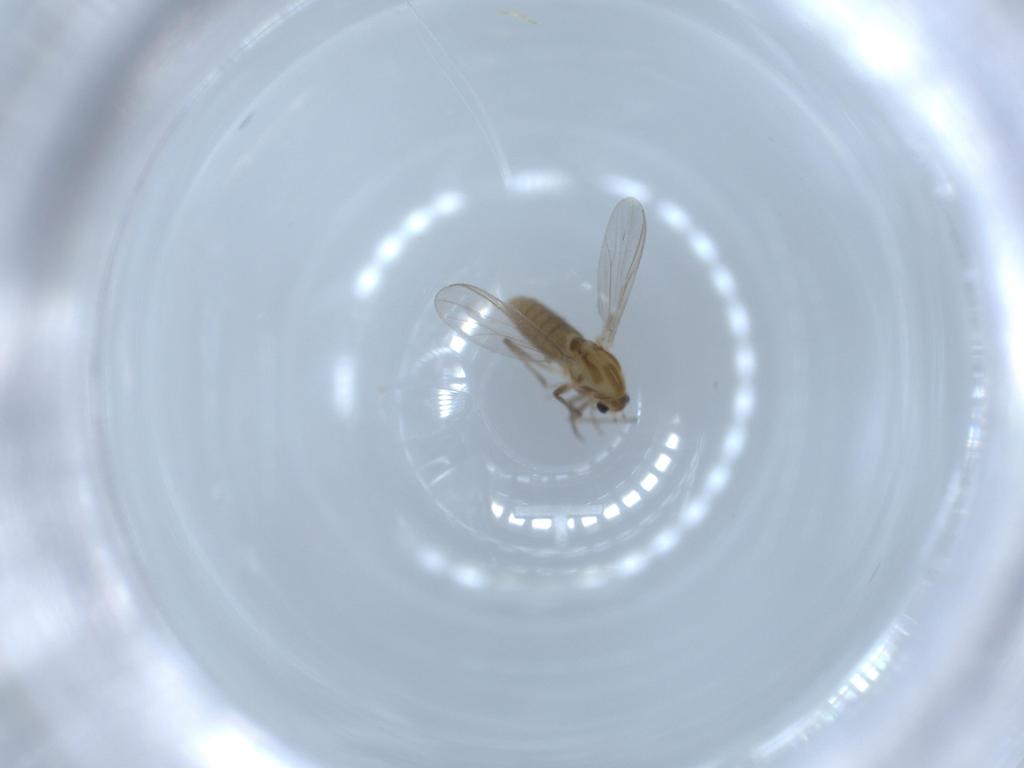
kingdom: Animalia
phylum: Arthropoda
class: Insecta
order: Diptera
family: Chironomidae
